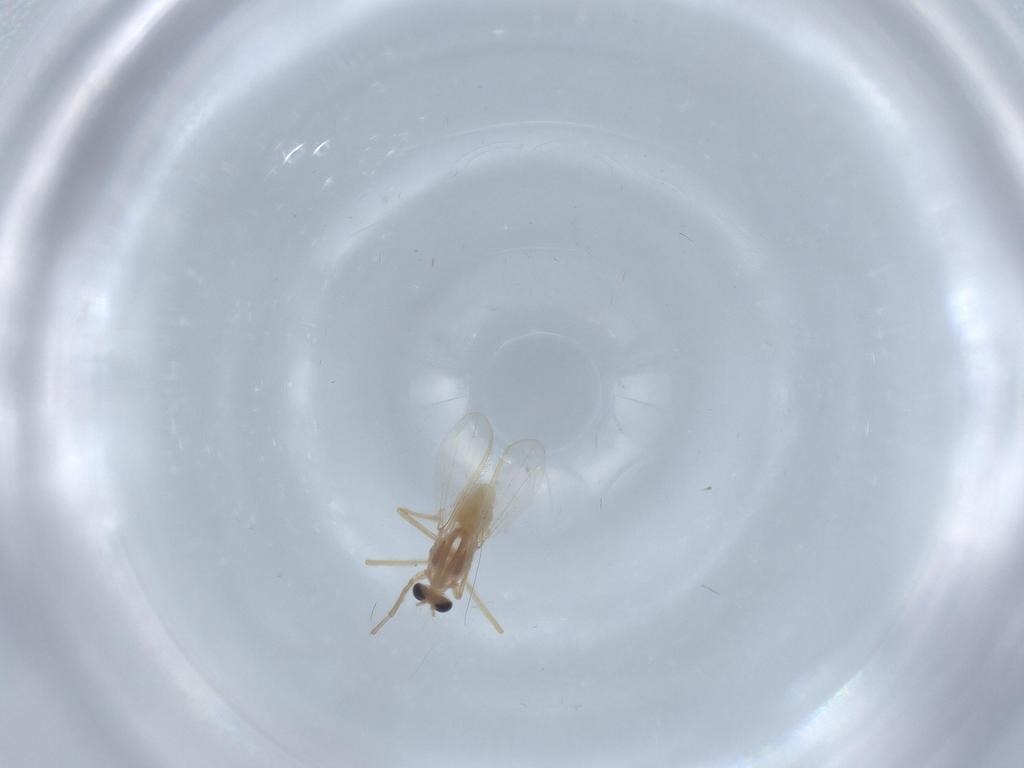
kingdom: Animalia
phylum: Arthropoda
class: Insecta
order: Diptera
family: Chironomidae
